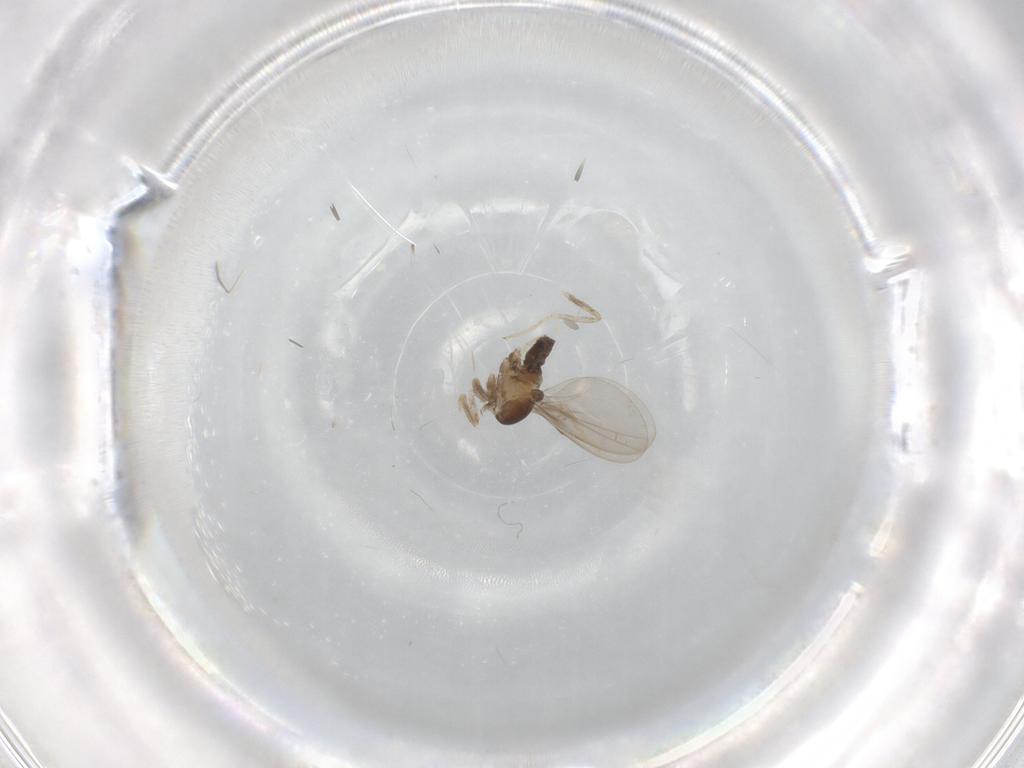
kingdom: Animalia
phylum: Arthropoda
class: Insecta
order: Diptera
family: Cecidomyiidae
